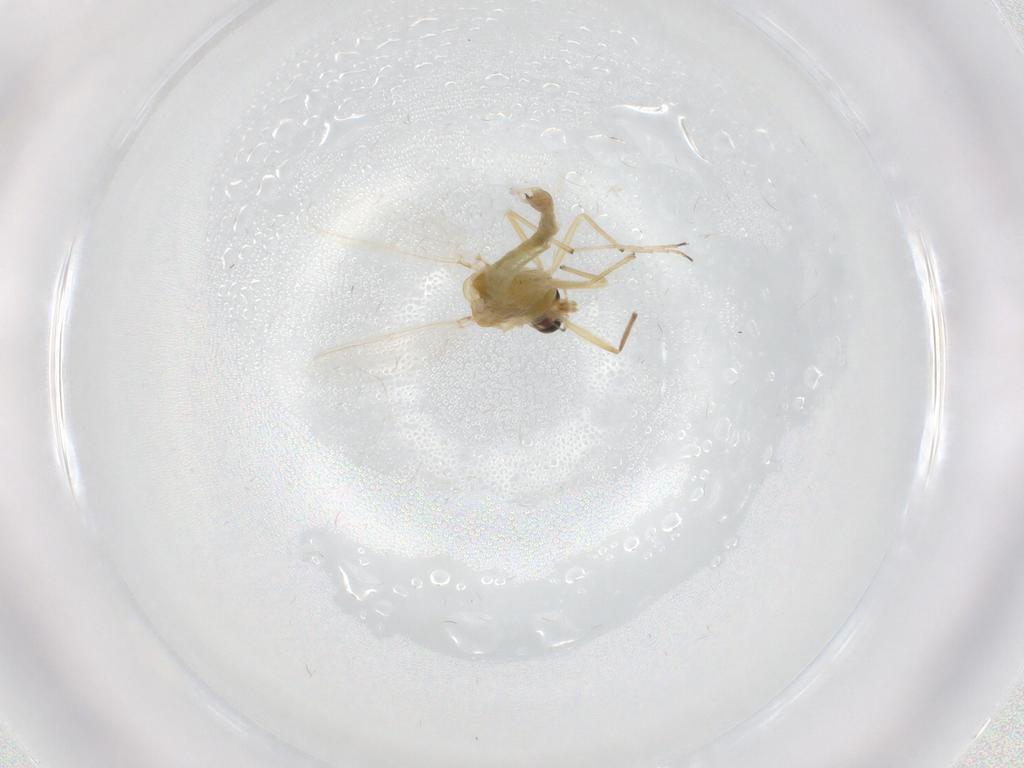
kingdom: Animalia
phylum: Arthropoda
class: Insecta
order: Diptera
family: Chironomidae
